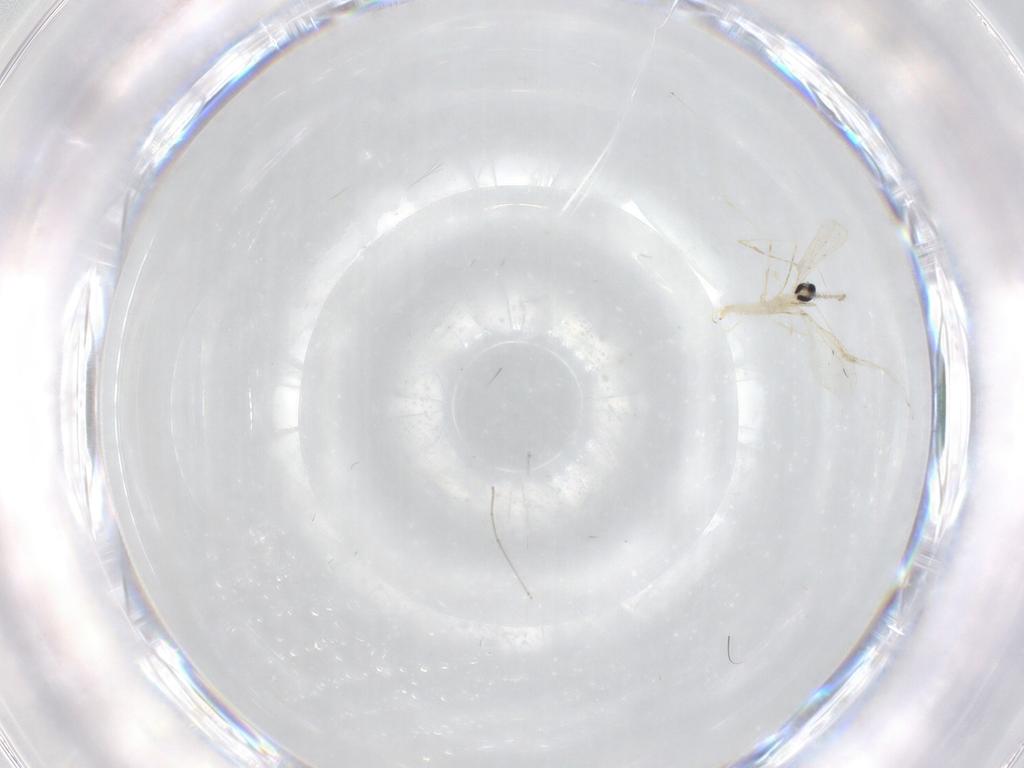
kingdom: Animalia
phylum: Arthropoda
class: Insecta
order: Diptera
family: Cecidomyiidae
